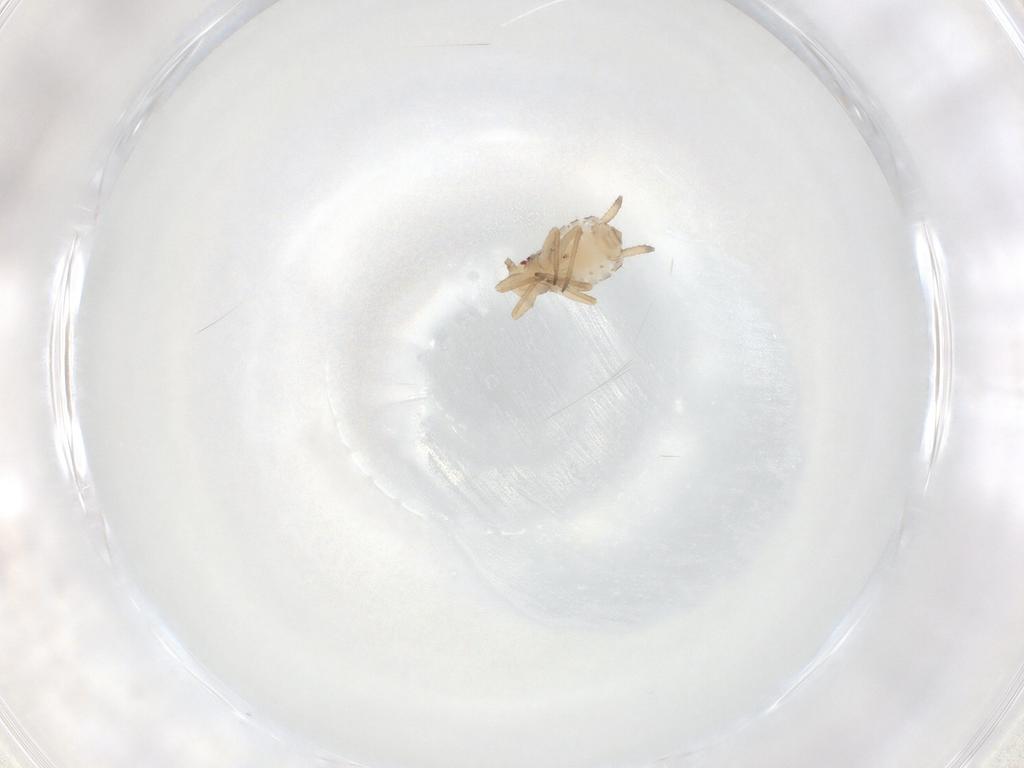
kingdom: Animalia
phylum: Arthropoda
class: Insecta
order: Hemiptera
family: Aphididae
